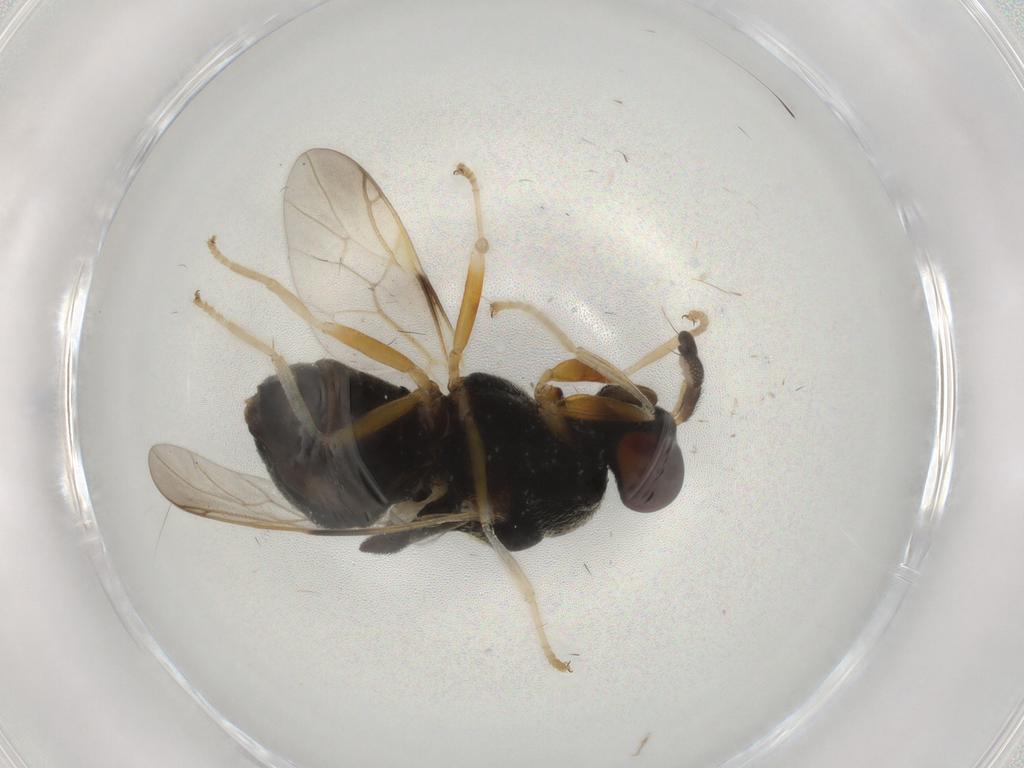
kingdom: Animalia
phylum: Arthropoda
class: Insecta
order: Diptera
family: Stratiomyidae
